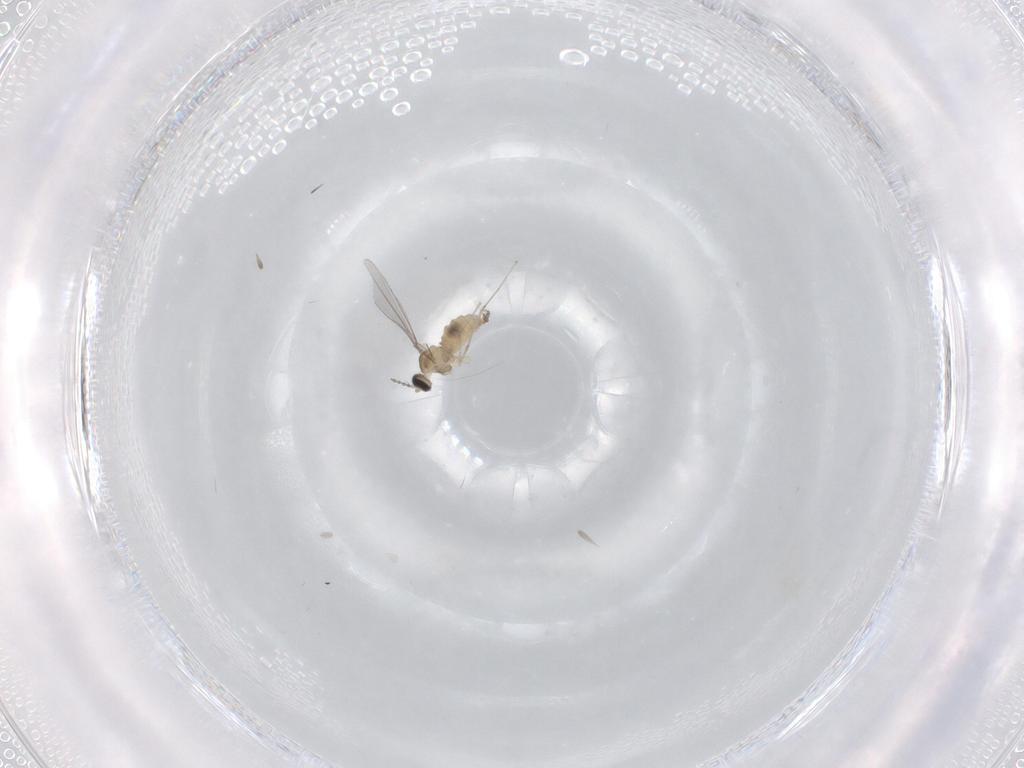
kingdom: Animalia
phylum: Arthropoda
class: Insecta
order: Diptera
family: Cecidomyiidae
